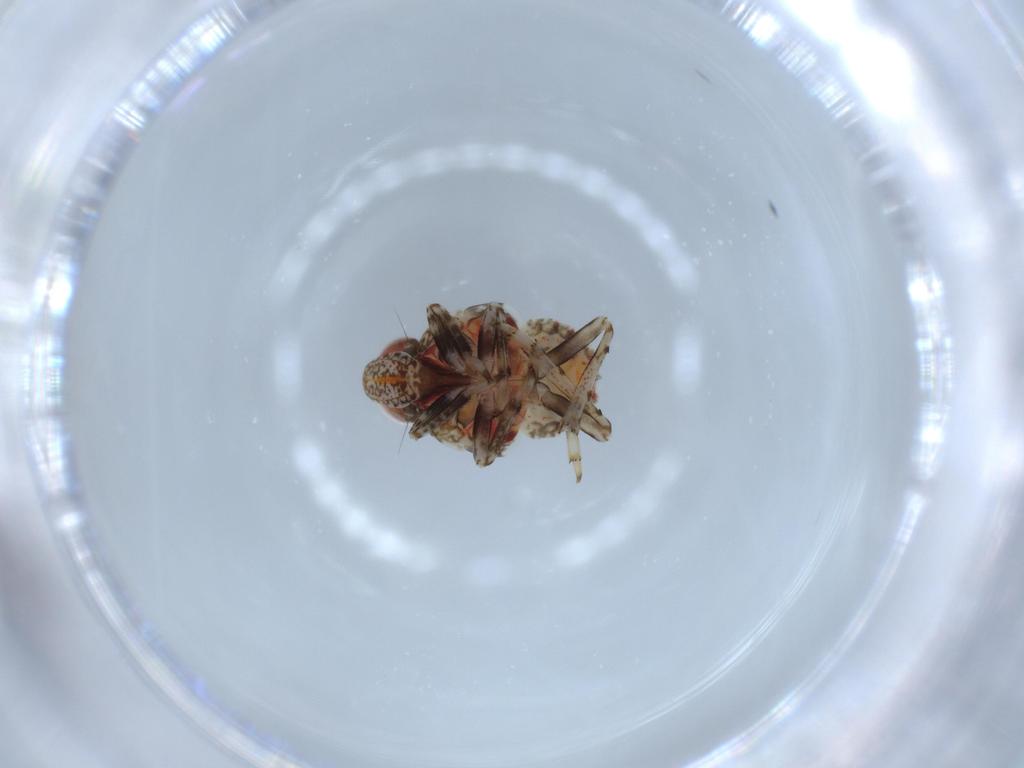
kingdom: Animalia
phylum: Arthropoda
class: Insecta
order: Hemiptera
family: Issidae
